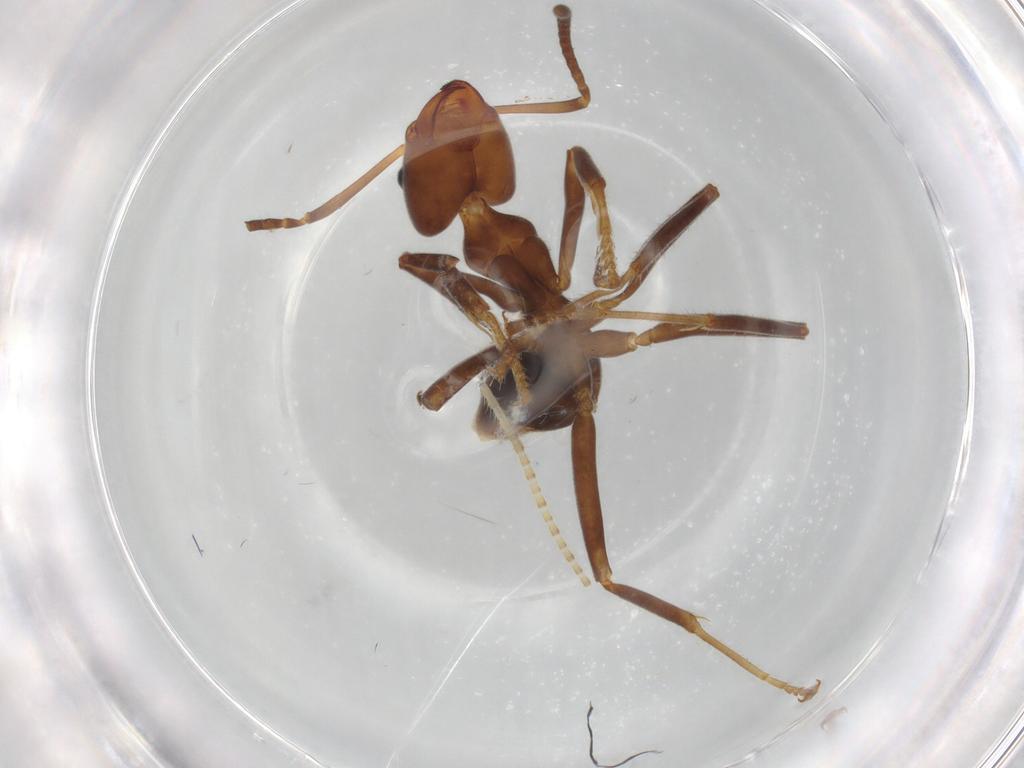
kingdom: Animalia
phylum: Arthropoda
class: Insecta
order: Hymenoptera
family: Formicidae
